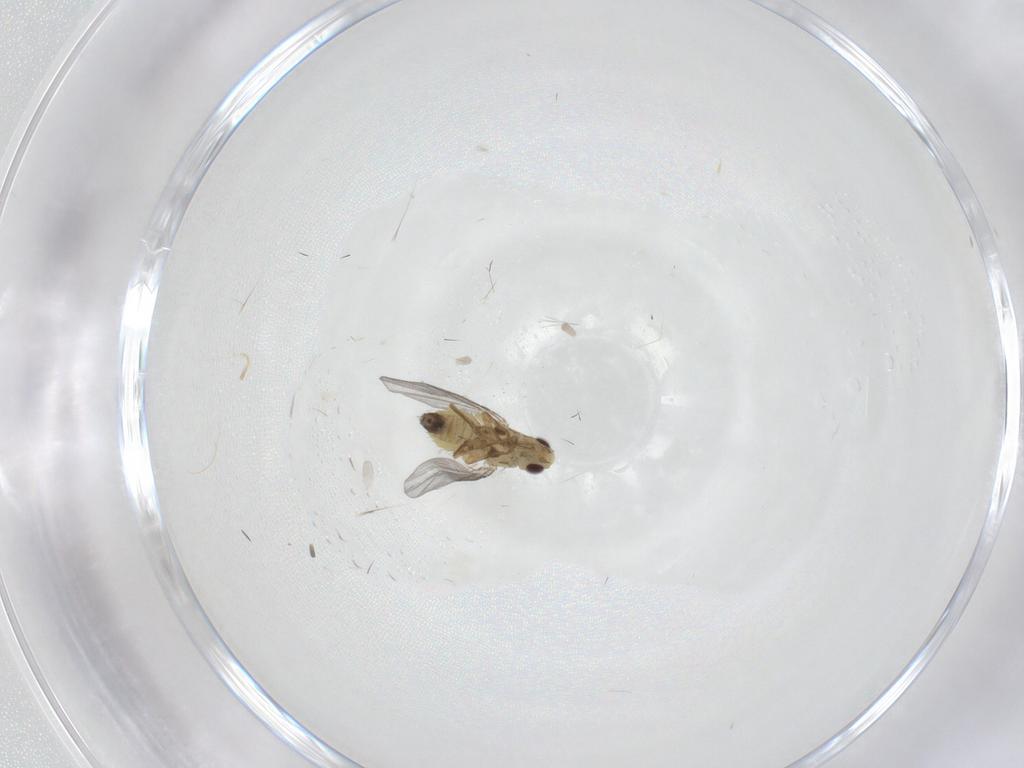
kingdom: Animalia
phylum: Arthropoda
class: Insecta
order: Diptera
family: Agromyzidae
